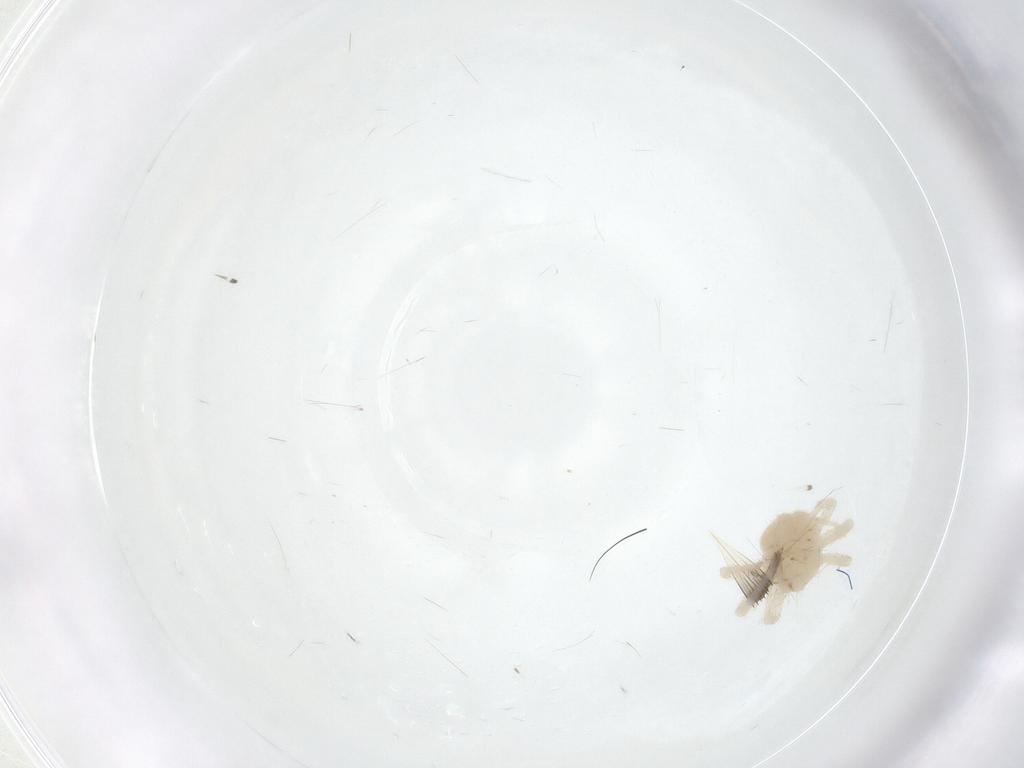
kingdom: Animalia
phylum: Arthropoda
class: Arachnida
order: Trombidiformes
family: Anystidae
